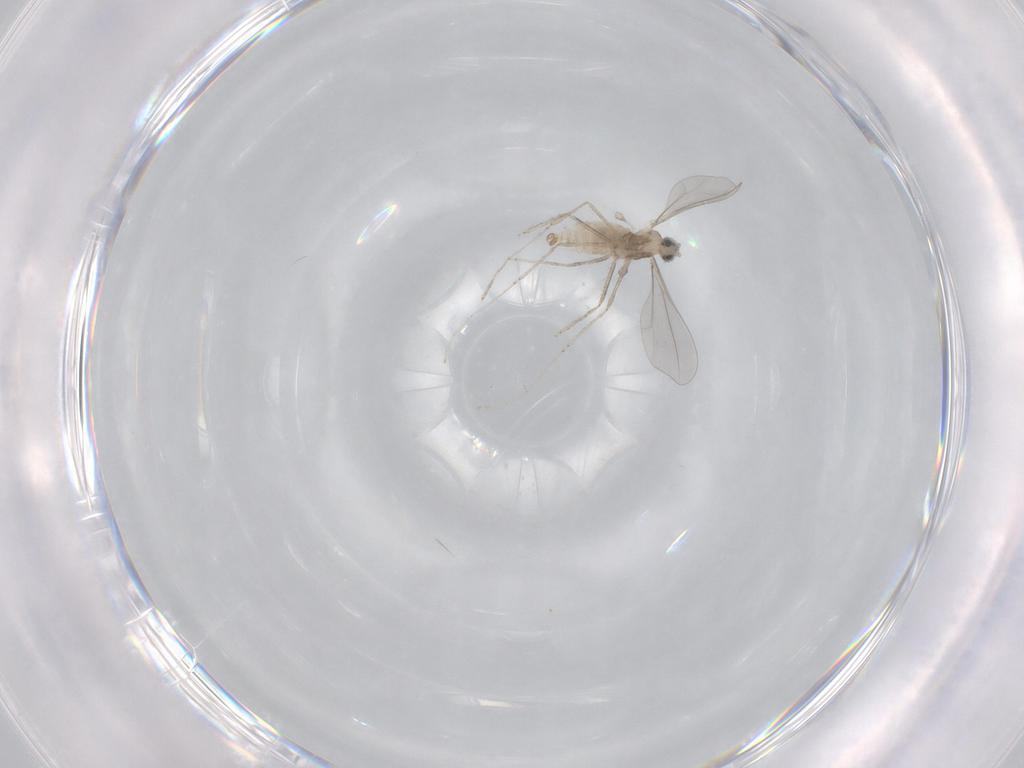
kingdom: Animalia
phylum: Arthropoda
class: Insecta
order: Diptera
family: Cecidomyiidae
